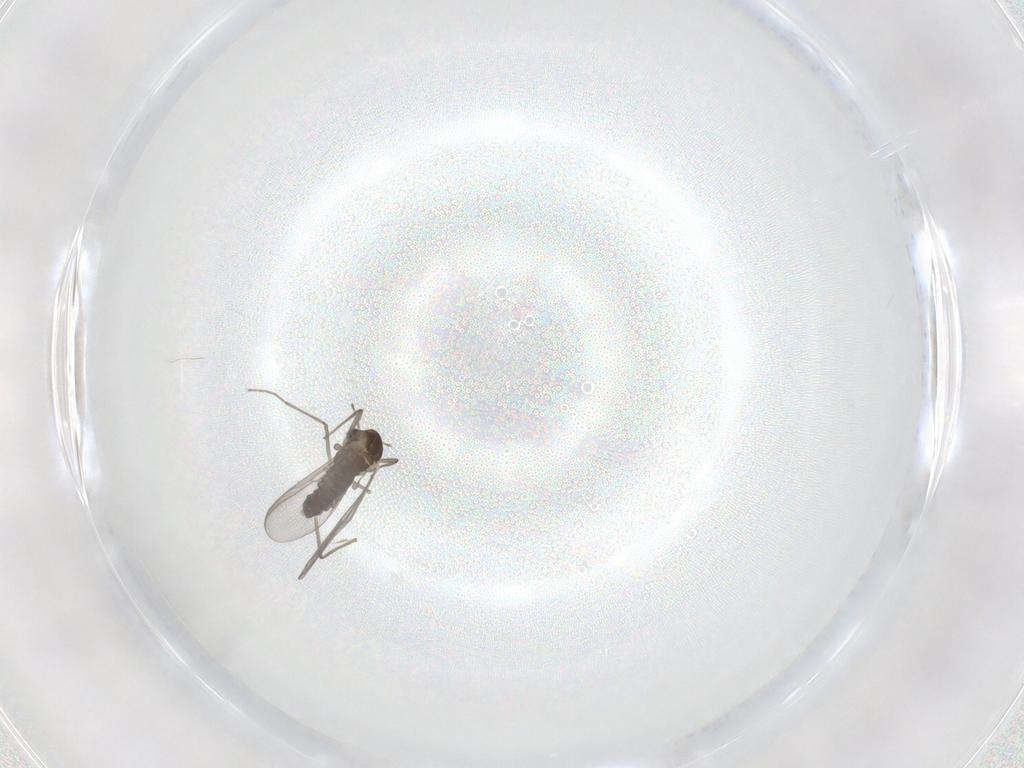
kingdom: Animalia
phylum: Arthropoda
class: Insecta
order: Diptera
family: Chironomidae
